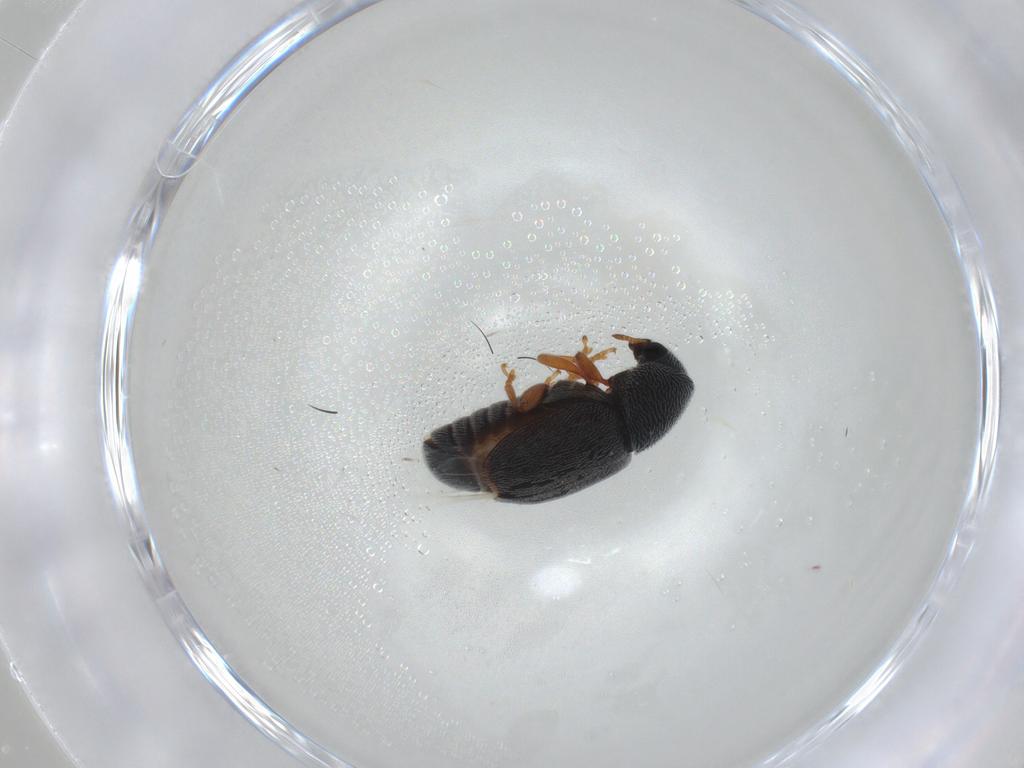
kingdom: Animalia
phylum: Arthropoda
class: Insecta
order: Coleoptera
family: Anthribidae
